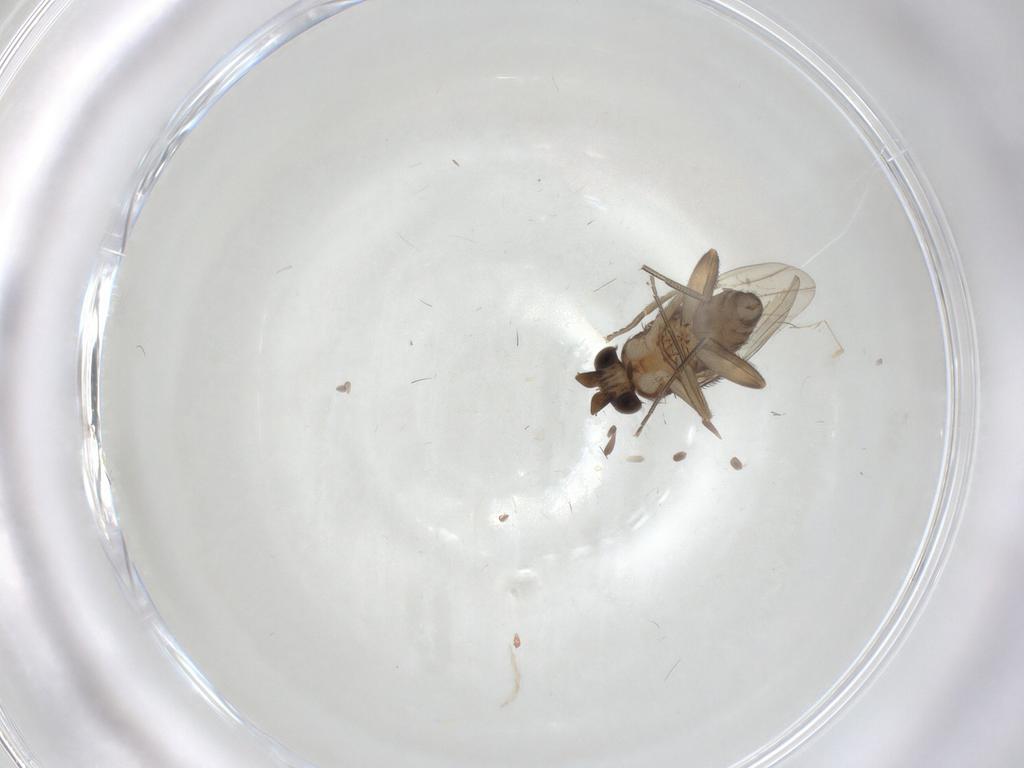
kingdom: Animalia
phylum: Arthropoda
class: Insecta
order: Diptera
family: Phoridae
